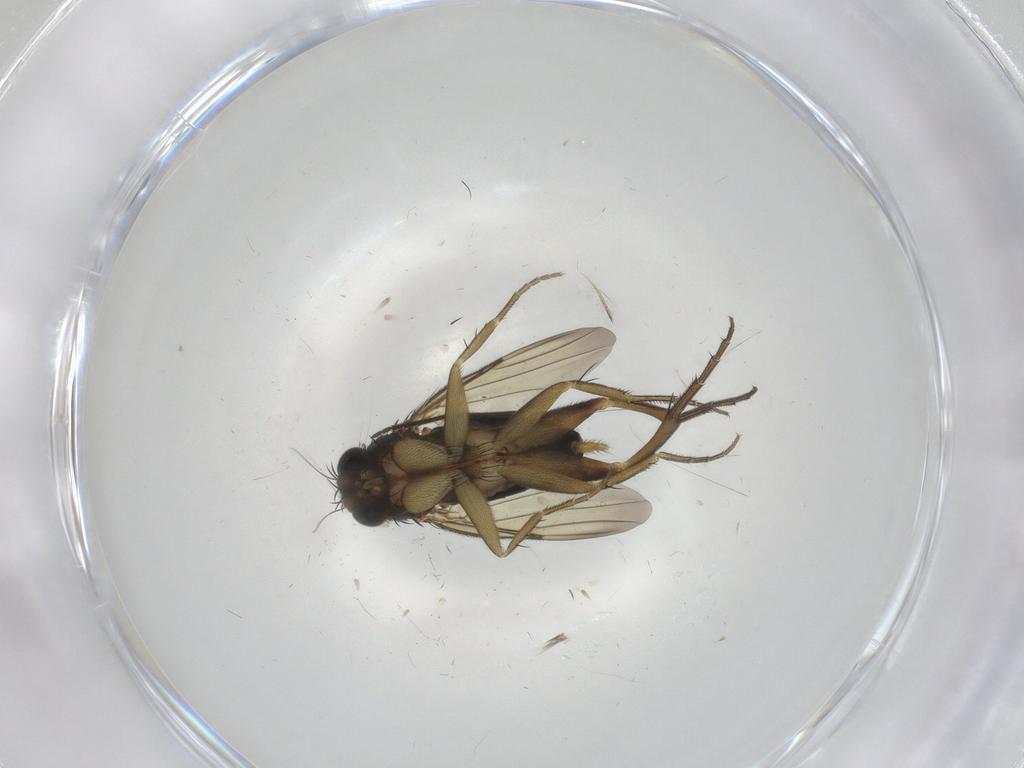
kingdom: Animalia
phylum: Arthropoda
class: Insecta
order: Diptera
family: Phoridae
